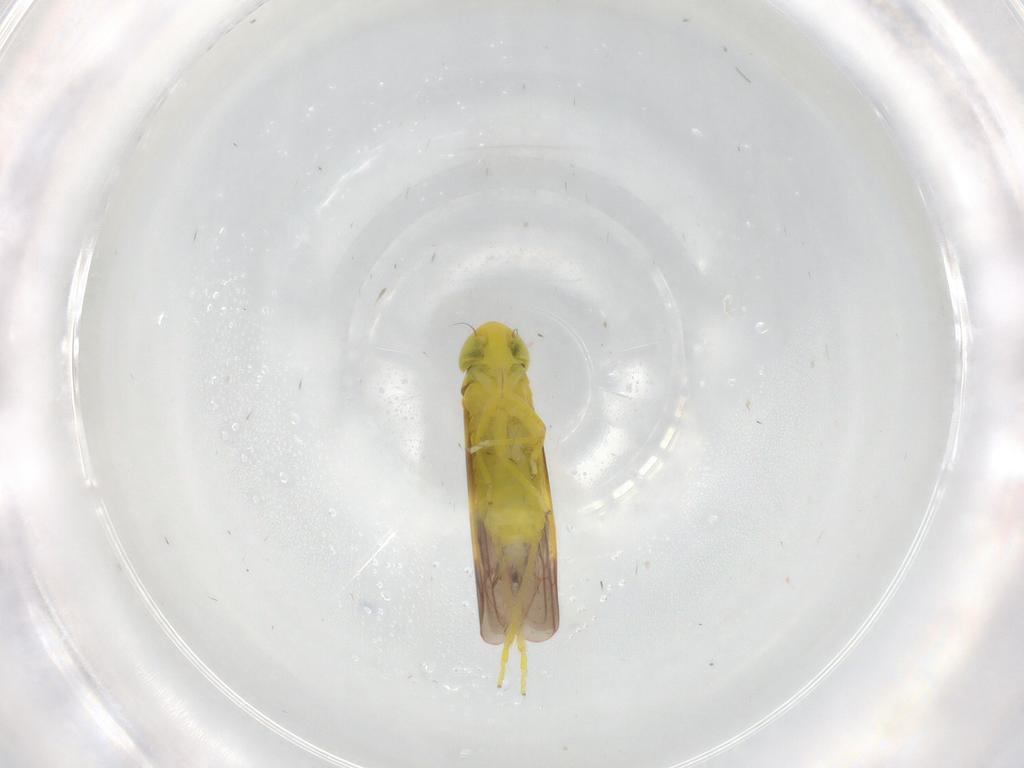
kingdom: Animalia
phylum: Arthropoda
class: Insecta
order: Hemiptera
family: Cicadellidae
